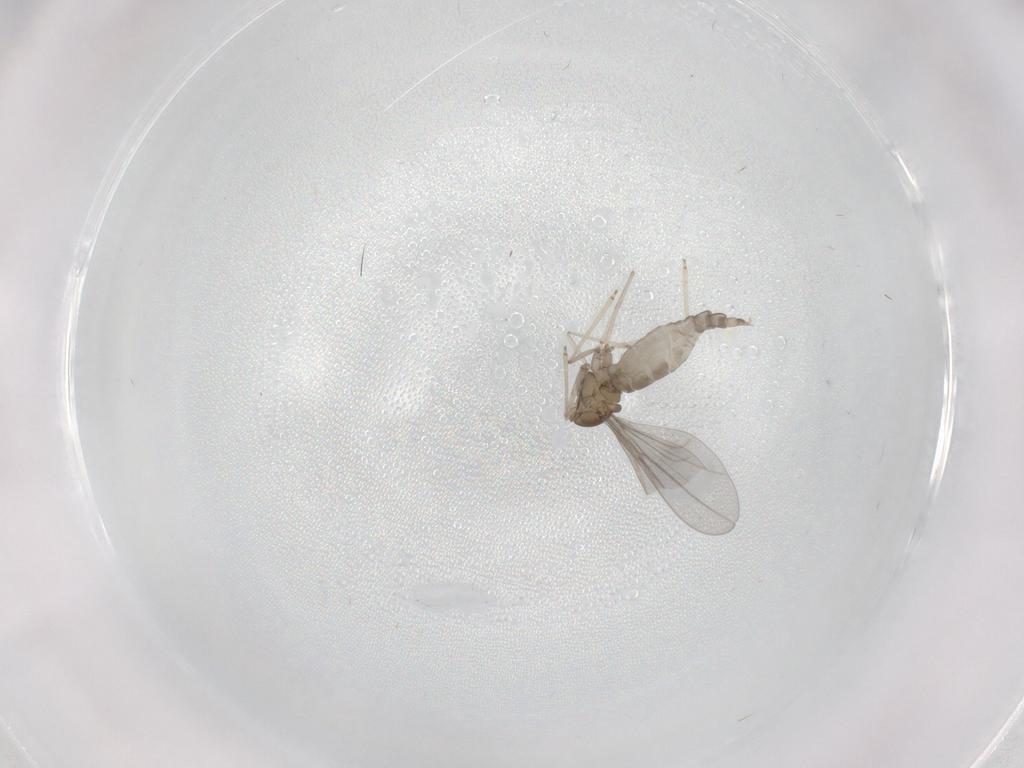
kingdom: Animalia
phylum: Arthropoda
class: Insecta
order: Diptera
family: Cecidomyiidae
